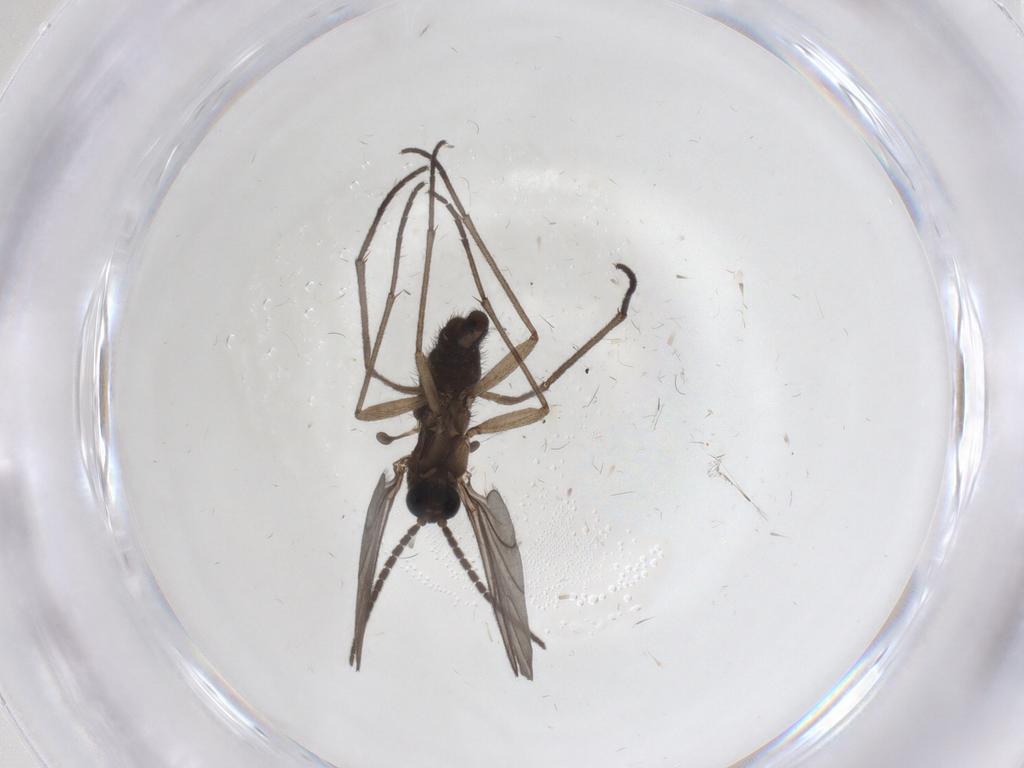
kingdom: Animalia
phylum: Arthropoda
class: Insecta
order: Diptera
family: Sciaridae
